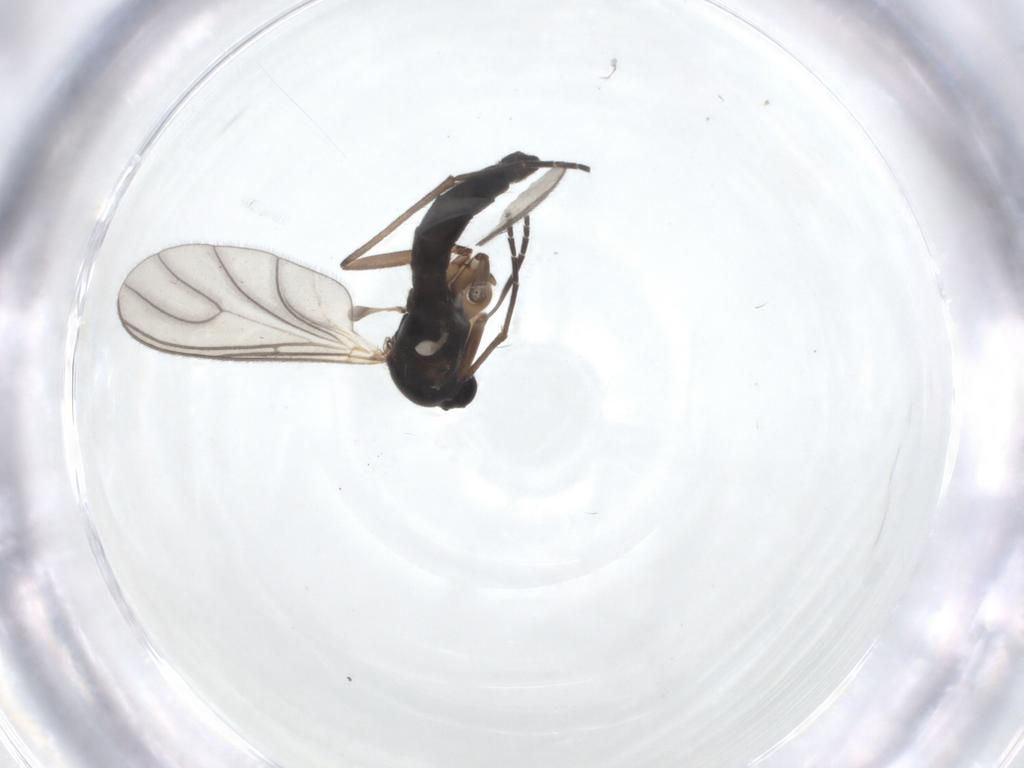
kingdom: Animalia
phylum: Arthropoda
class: Insecta
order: Diptera
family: Sciaridae
